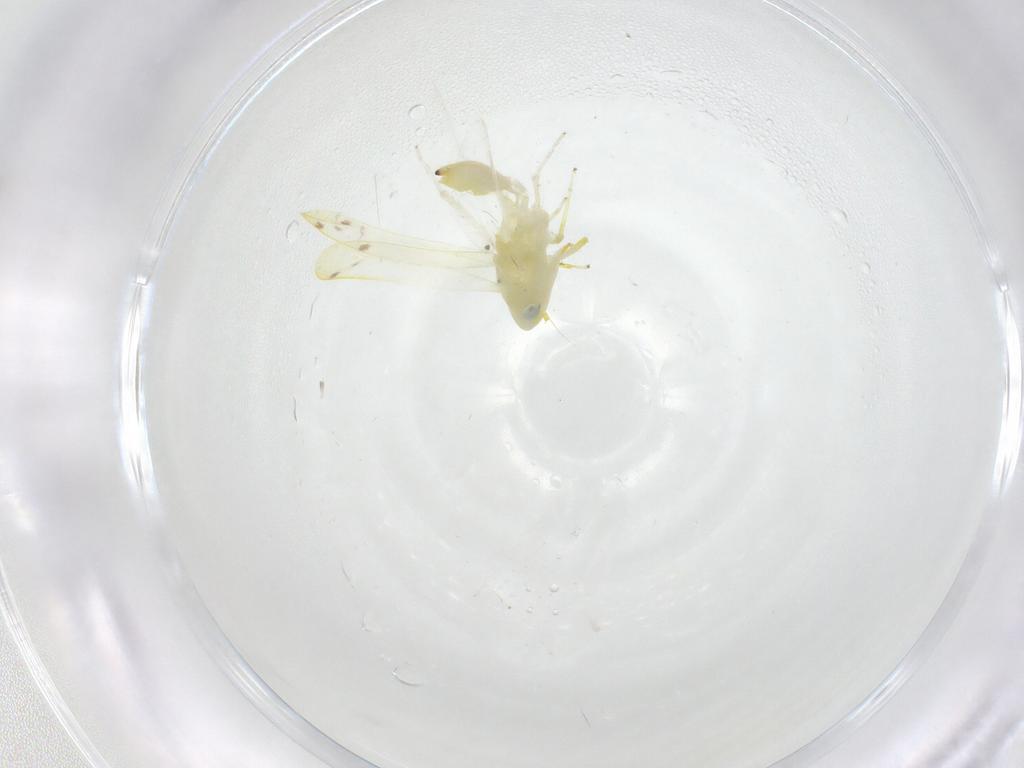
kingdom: Animalia
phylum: Arthropoda
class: Insecta
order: Hemiptera
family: Cicadellidae
